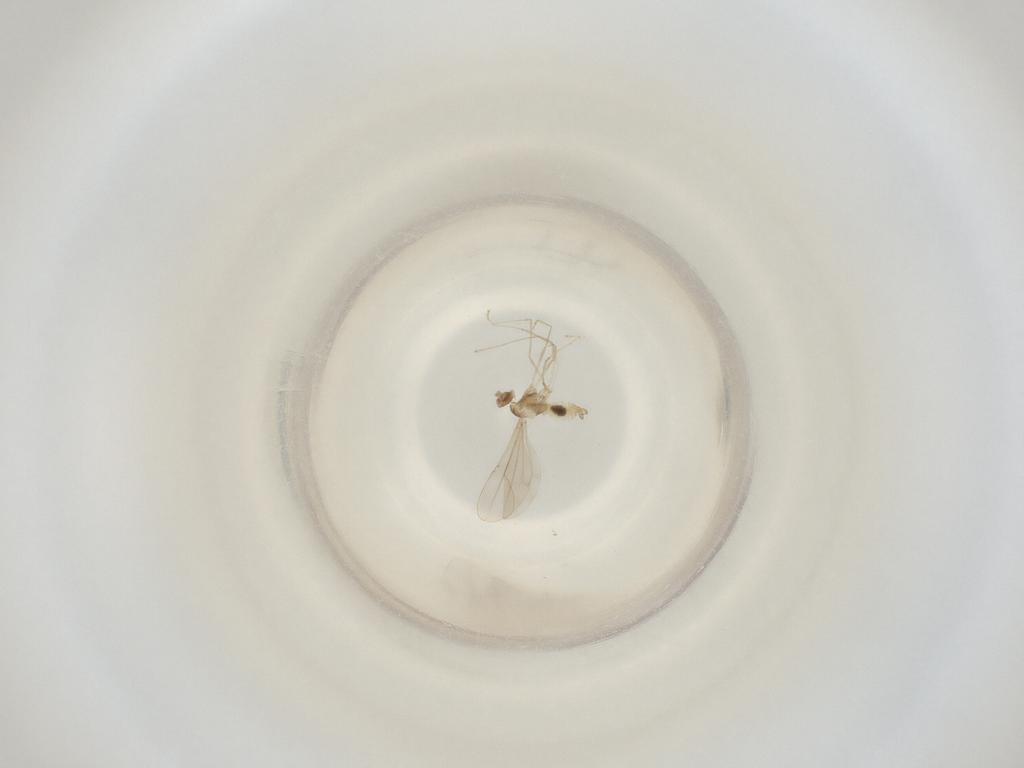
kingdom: Animalia
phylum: Arthropoda
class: Insecta
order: Diptera
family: Cecidomyiidae
